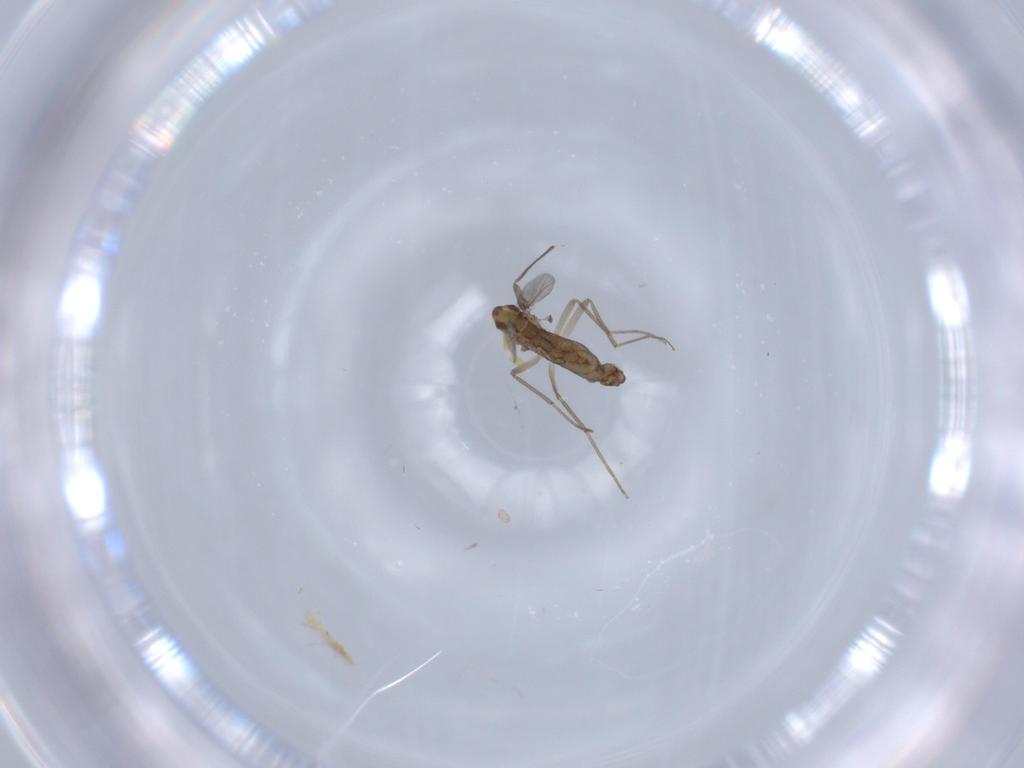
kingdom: Animalia
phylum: Arthropoda
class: Insecta
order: Diptera
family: Chironomidae
